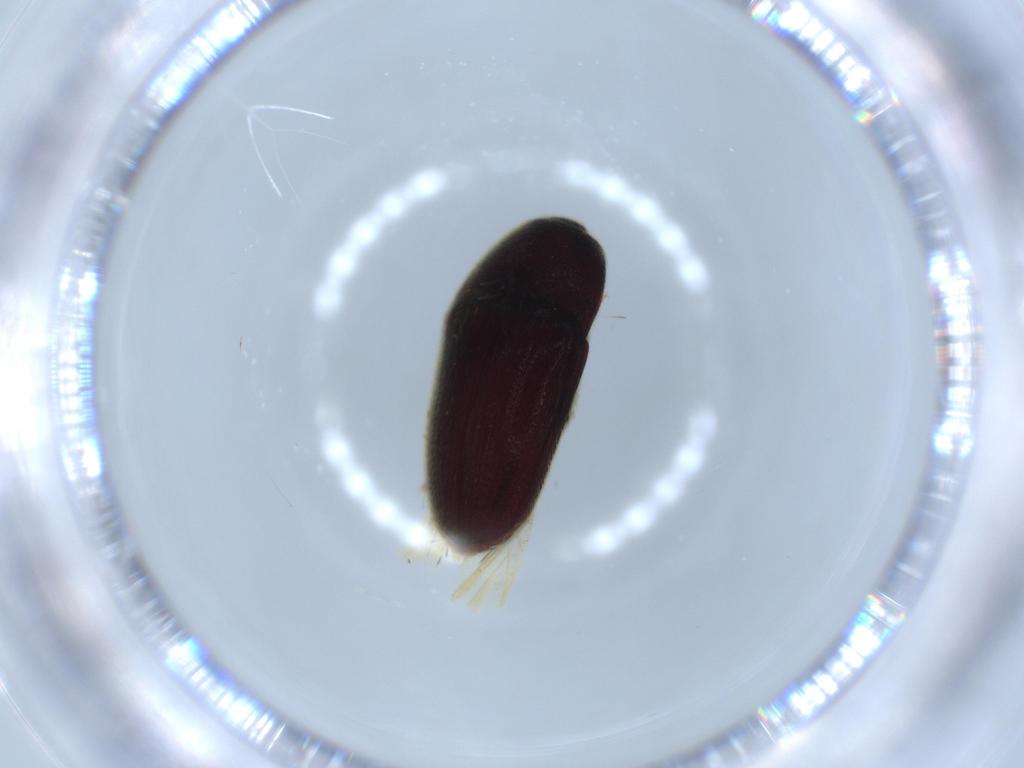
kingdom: Animalia
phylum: Arthropoda
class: Insecta
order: Coleoptera
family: Throscidae
